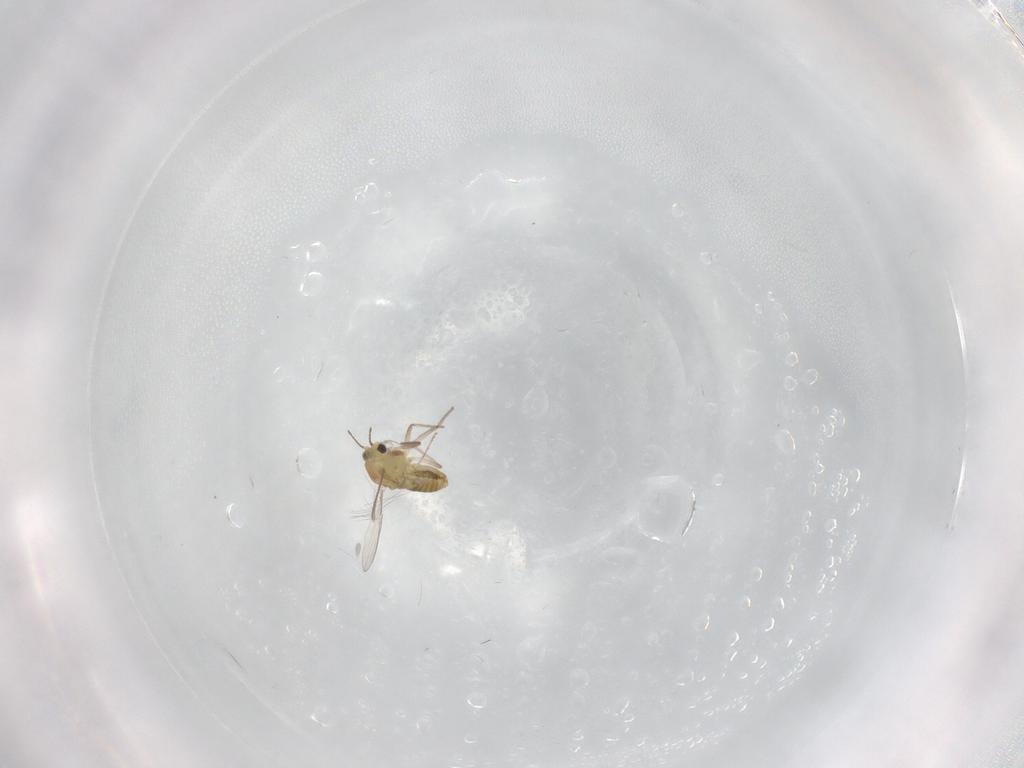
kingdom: Animalia
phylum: Arthropoda
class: Insecta
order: Diptera
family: Chironomidae
